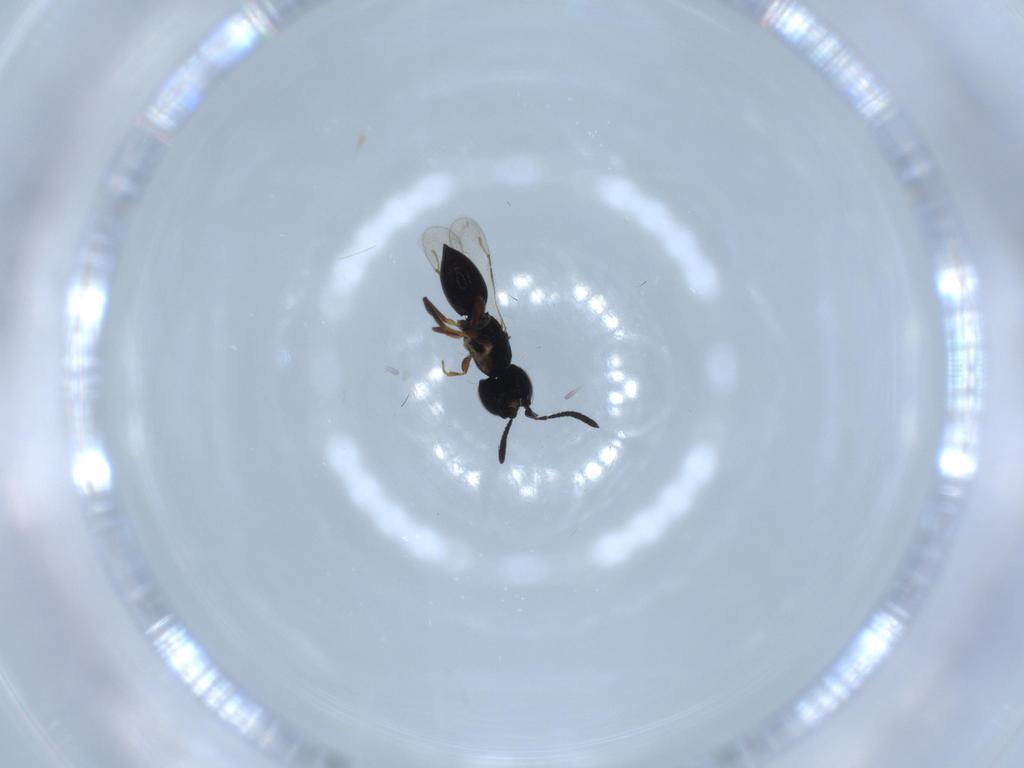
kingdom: Animalia
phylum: Arthropoda
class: Insecta
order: Hymenoptera
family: Ceraphronidae
